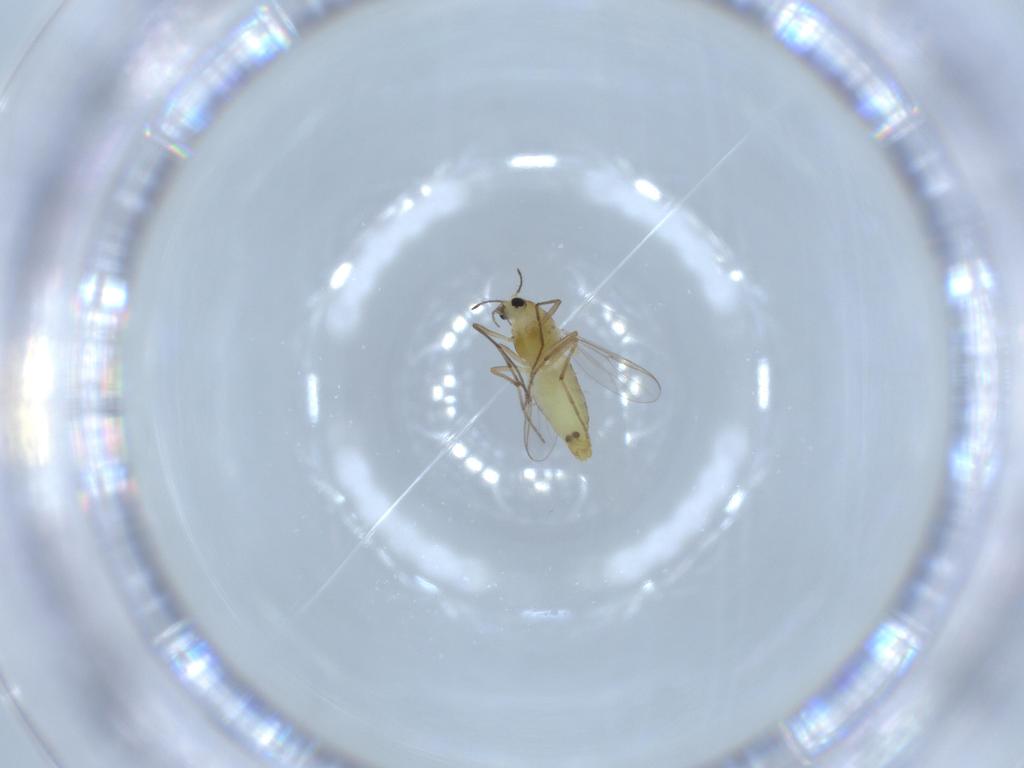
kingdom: Animalia
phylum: Arthropoda
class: Insecta
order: Diptera
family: Chironomidae
